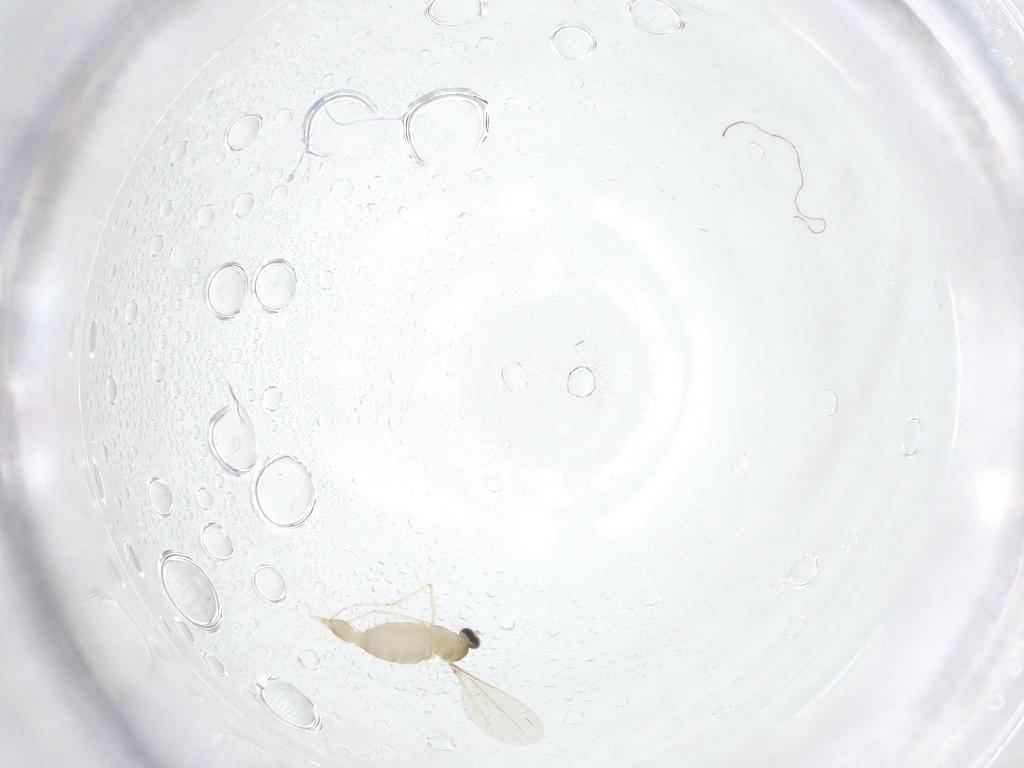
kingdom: Animalia
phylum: Arthropoda
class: Insecta
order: Diptera
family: Cecidomyiidae
